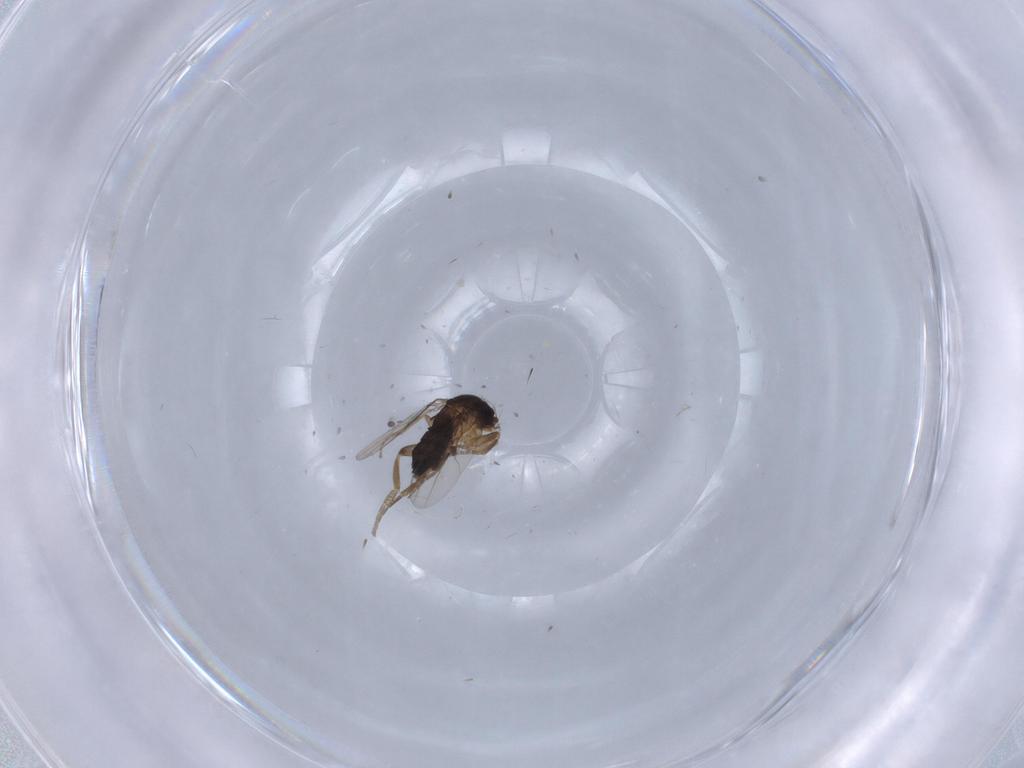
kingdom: Animalia
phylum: Arthropoda
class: Insecta
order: Diptera
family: Phoridae
